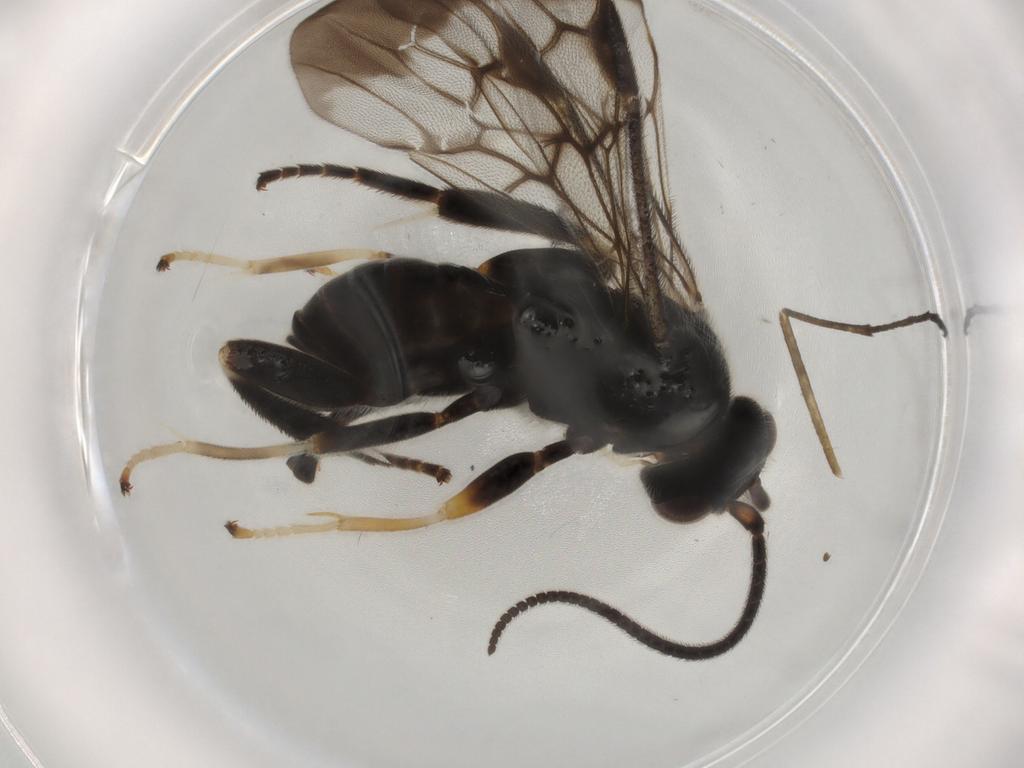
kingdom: Animalia
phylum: Arthropoda
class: Insecta
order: Hymenoptera
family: Braconidae
